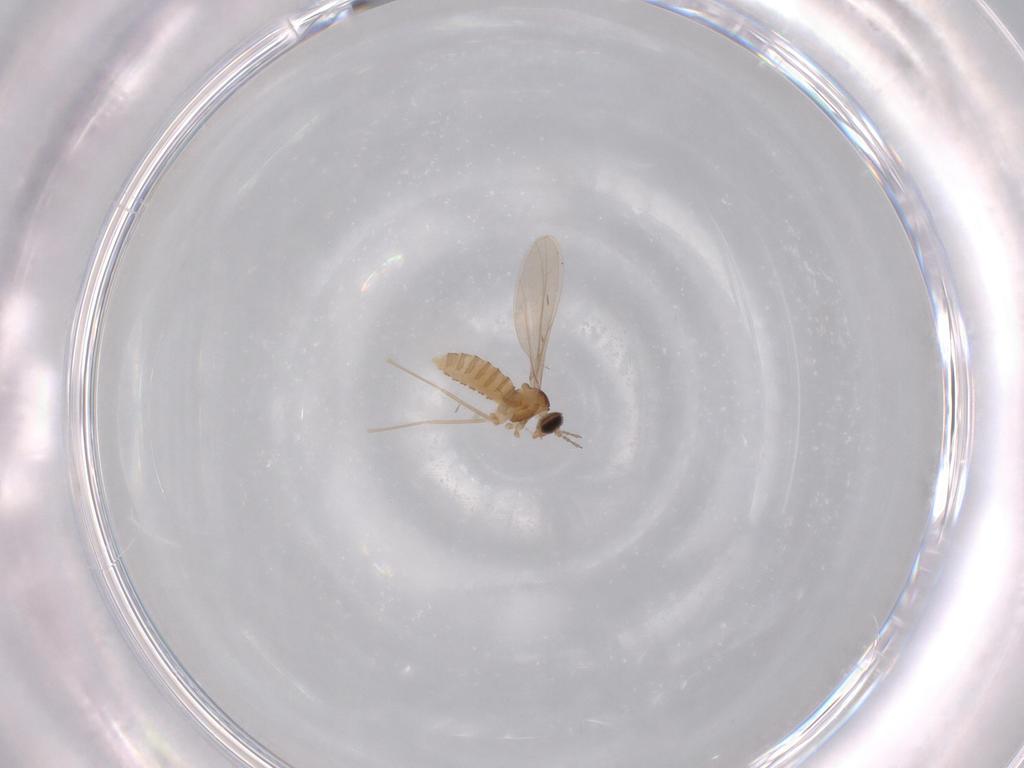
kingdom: Animalia
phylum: Arthropoda
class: Insecta
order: Diptera
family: Cecidomyiidae
